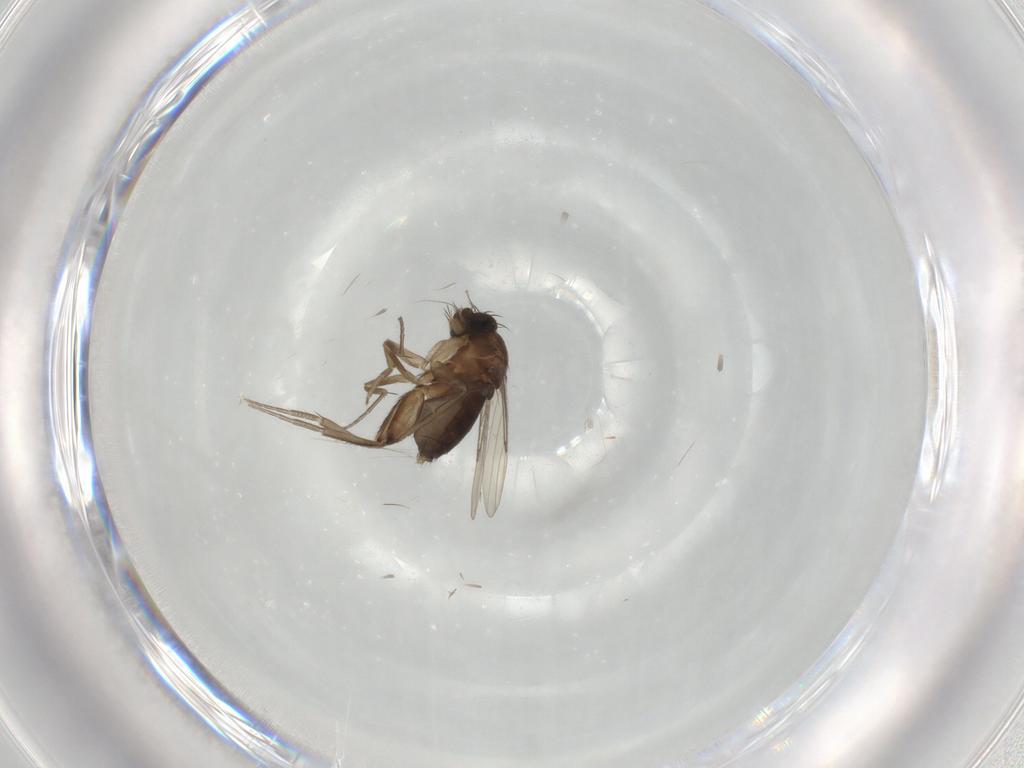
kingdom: Animalia
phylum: Arthropoda
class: Insecta
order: Diptera
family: Phoridae
